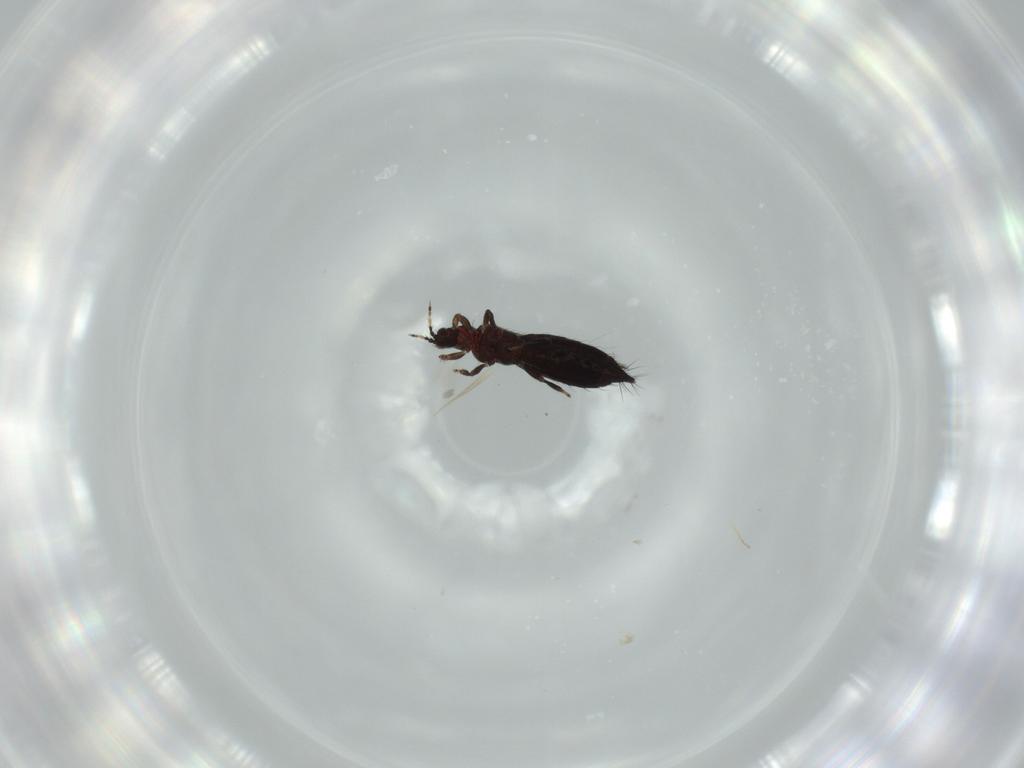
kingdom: Animalia
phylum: Arthropoda
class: Insecta
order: Thysanoptera
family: Thripidae
